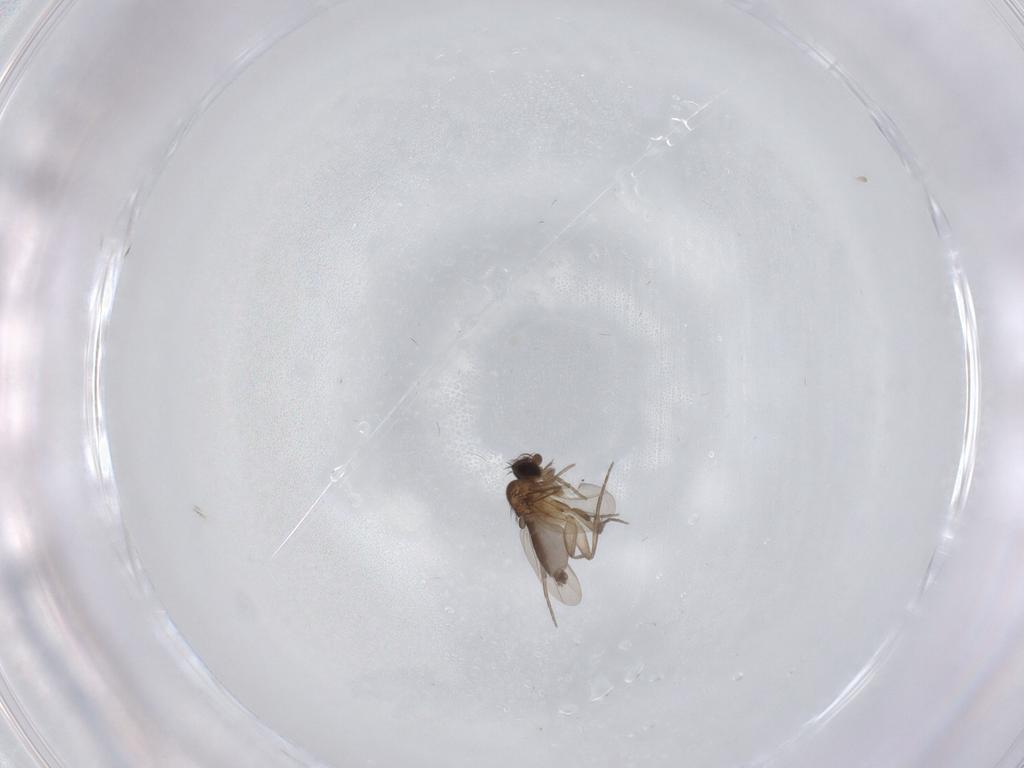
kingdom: Animalia
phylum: Arthropoda
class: Insecta
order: Diptera
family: Phoridae
